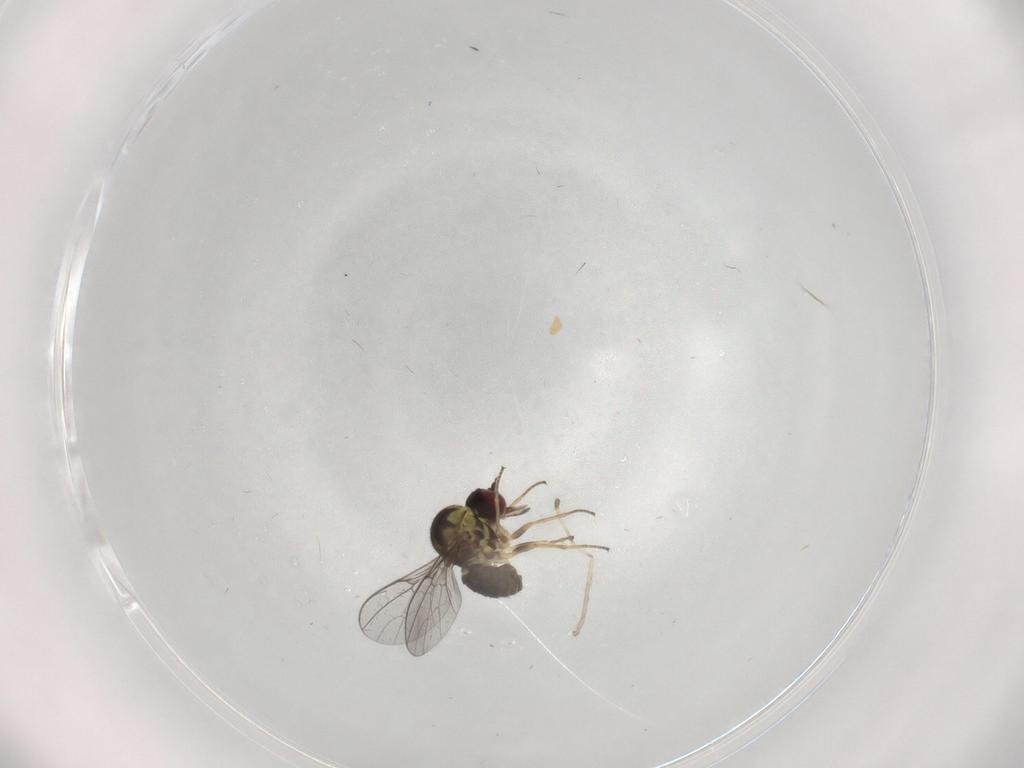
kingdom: Animalia
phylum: Arthropoda
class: Insecta
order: Diptera
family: Bombyliidae
